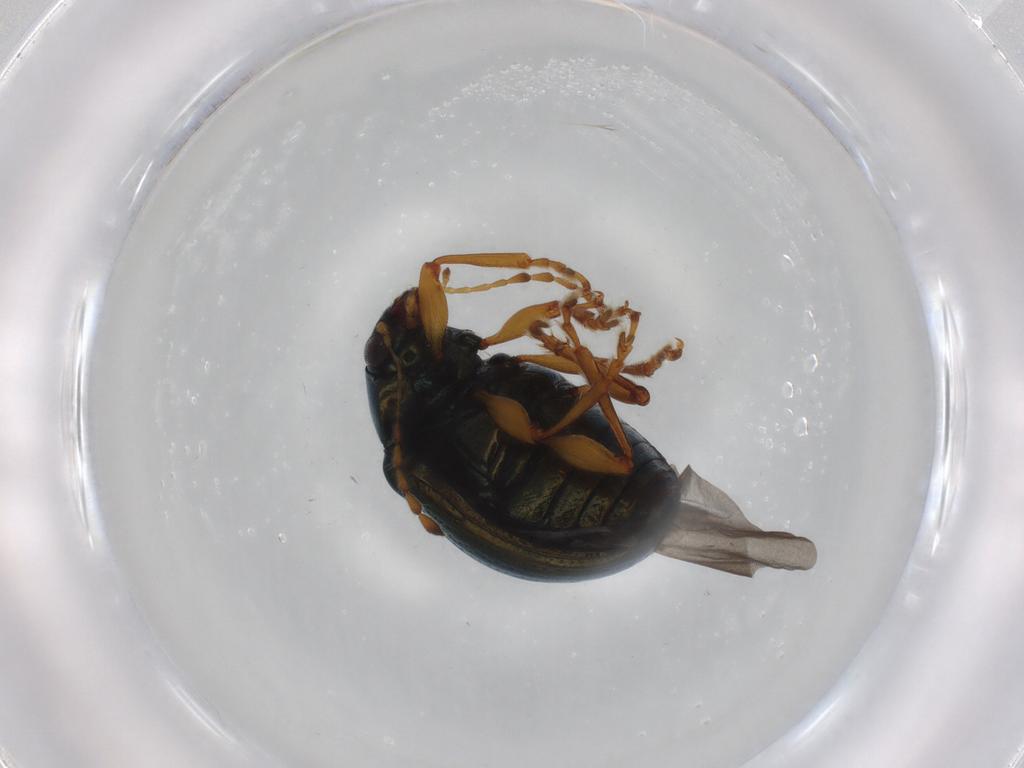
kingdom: Animalia
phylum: Arthropoda
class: Insecta
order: Coleoptera
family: Chrysomelidae
